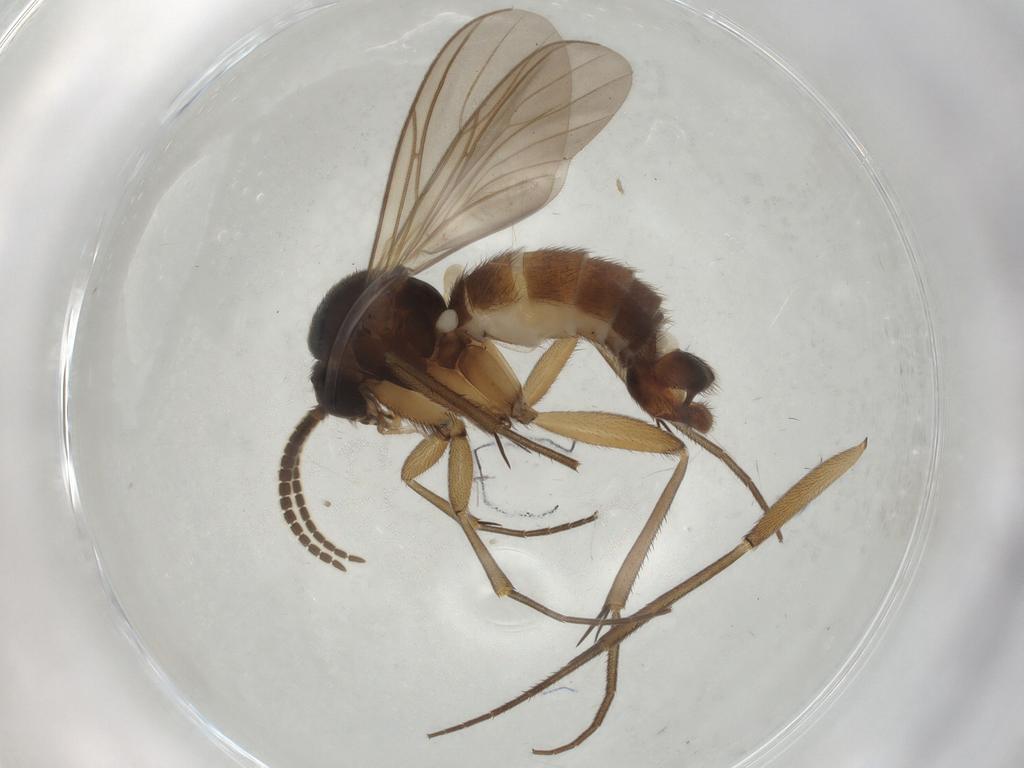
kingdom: Animalia
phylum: Arthropoda
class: Insecta
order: Diptera
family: Mycetophilidae
